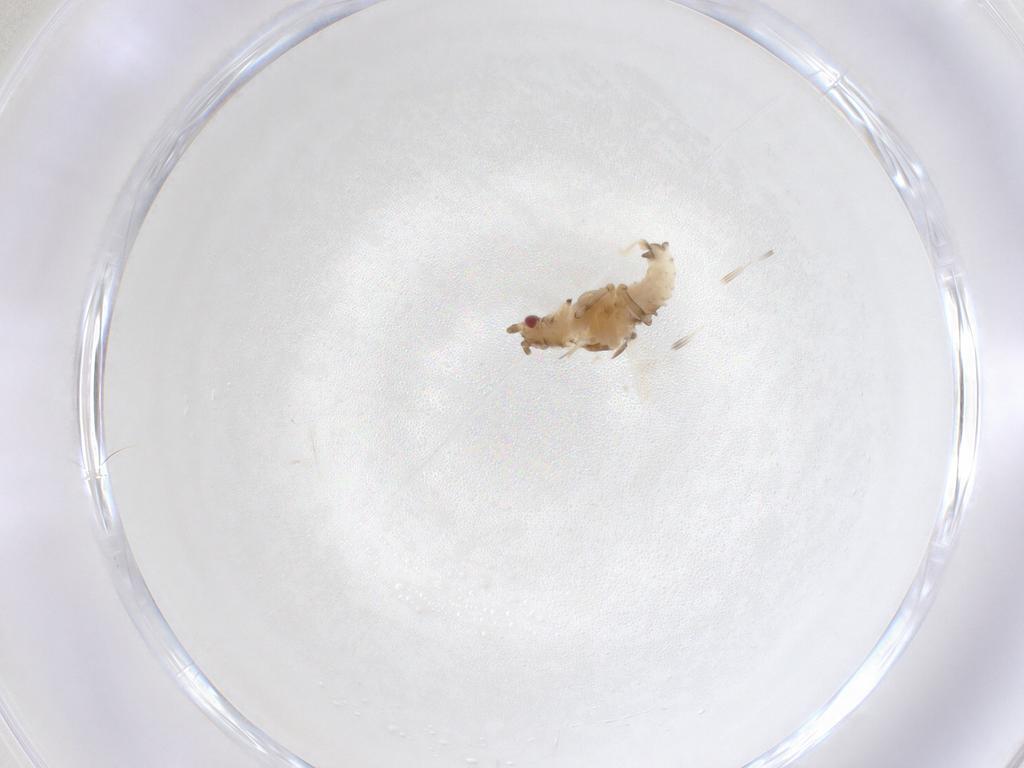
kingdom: Animalia
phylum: Arthropoda
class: Insecta
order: Hemiptera
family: Aphididae
